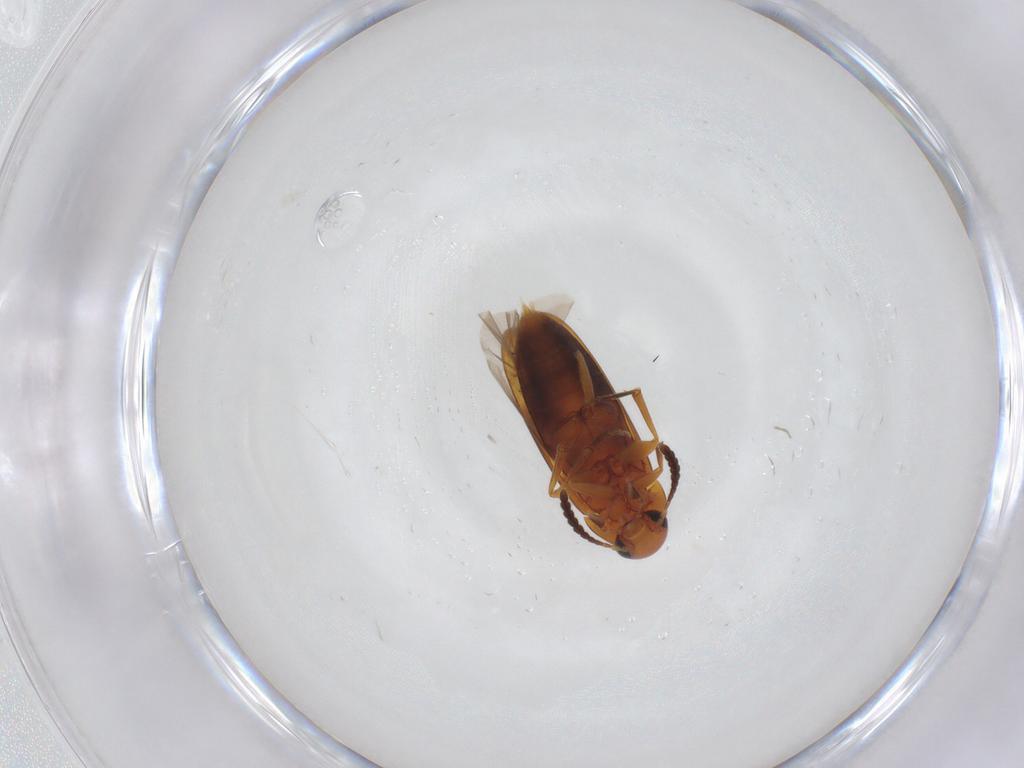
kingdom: Animalia
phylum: Arthropoda
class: Insecta
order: Coleoptera
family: Scraptiidae
